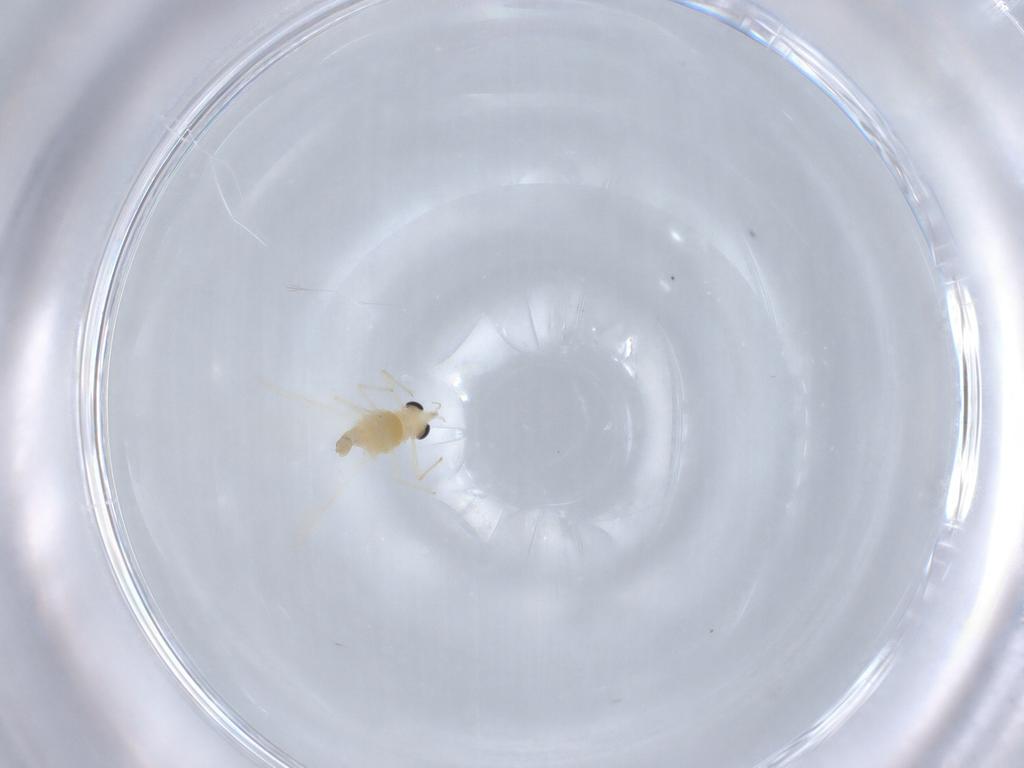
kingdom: Animalia
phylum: Arthropoda
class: Insecta
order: Diptera
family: Chironomidae
